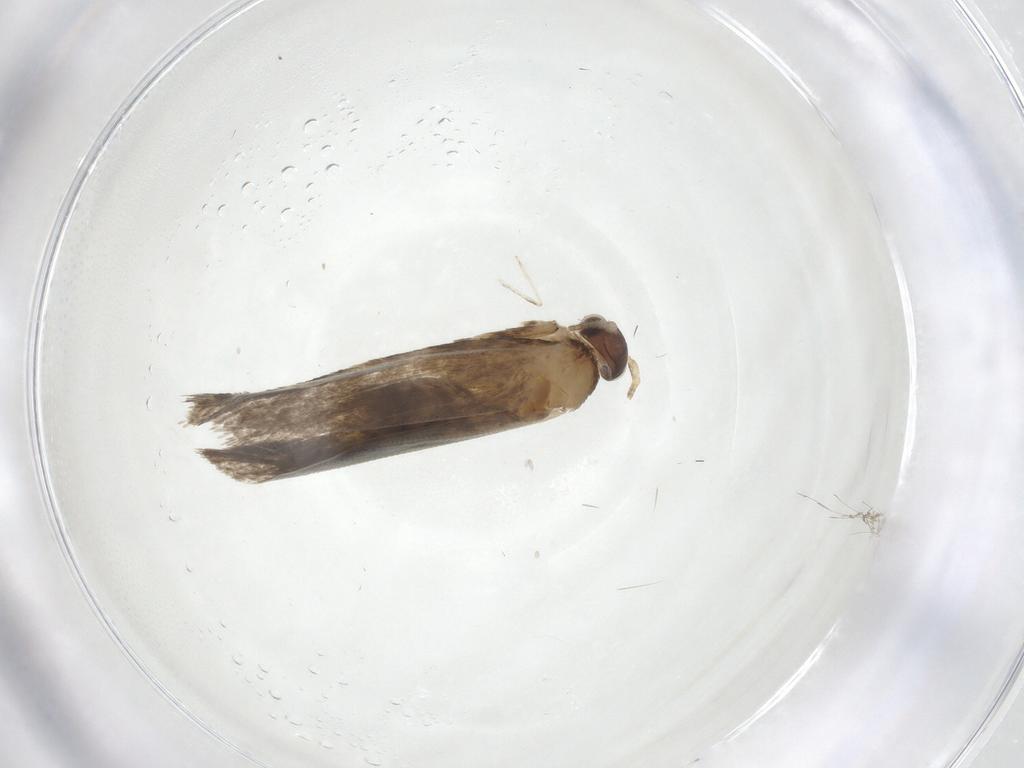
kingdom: Animalia
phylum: Arthropoda
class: Insecta
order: Lepidoptera
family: Dryadaulidae
